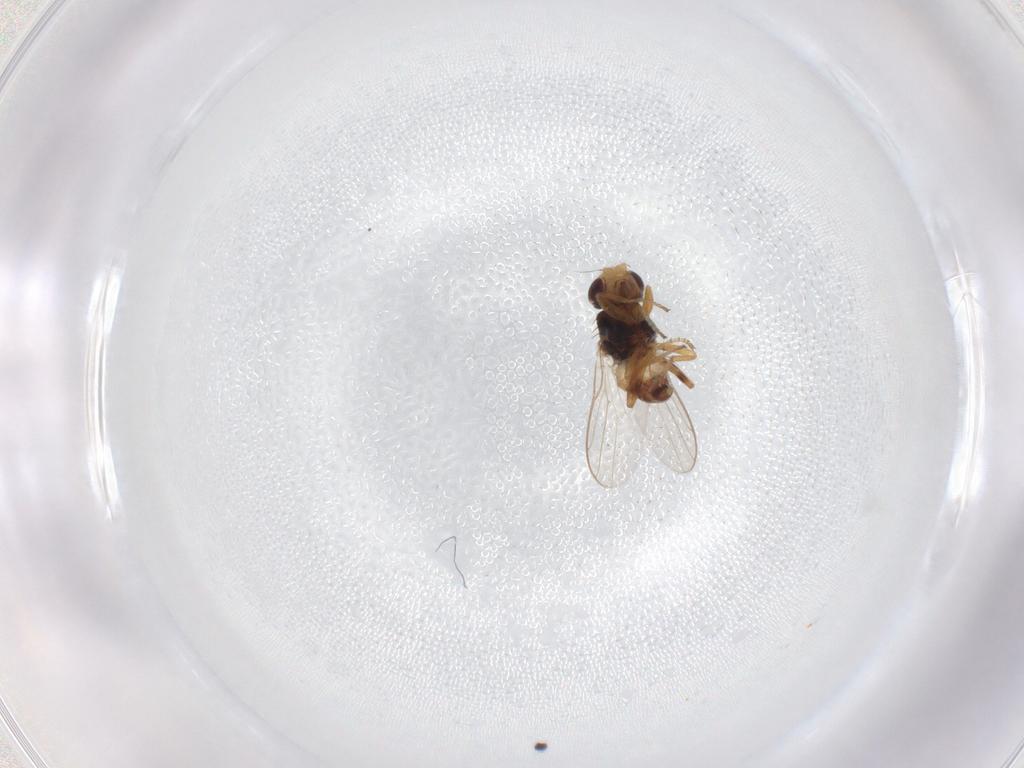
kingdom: Animalia
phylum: Arthropoda
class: Insecta
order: Diptera
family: Chloropidae
